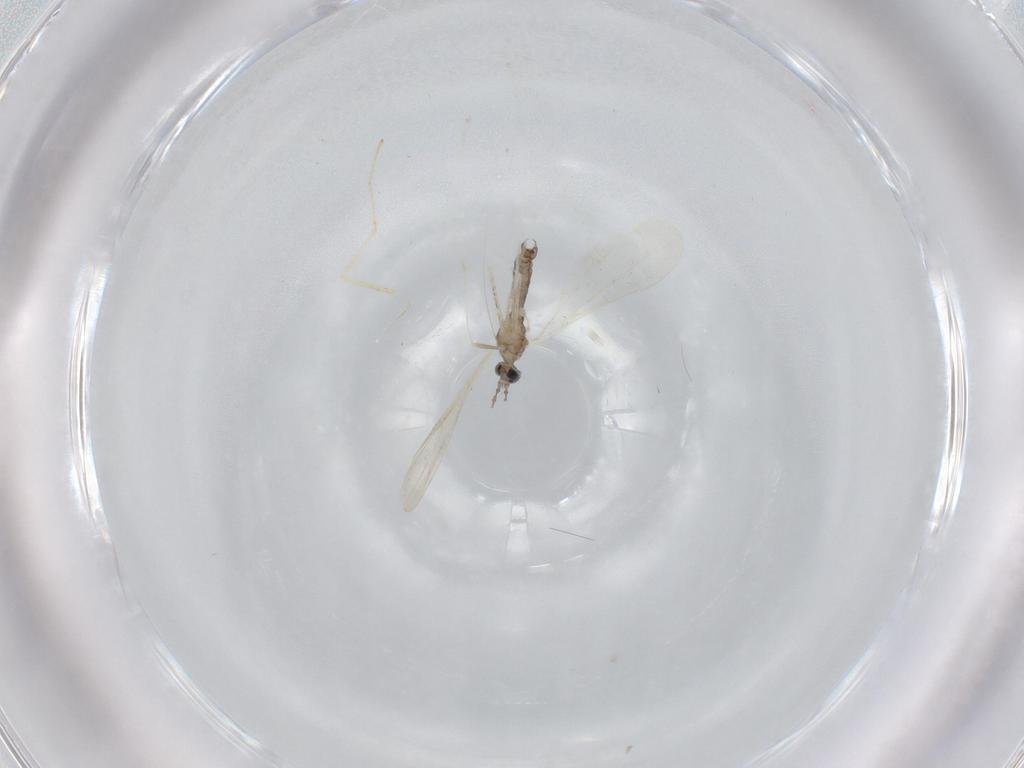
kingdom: Animalia
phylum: Arthropoda
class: Insecta
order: Diptera
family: Cecidomyiidae
